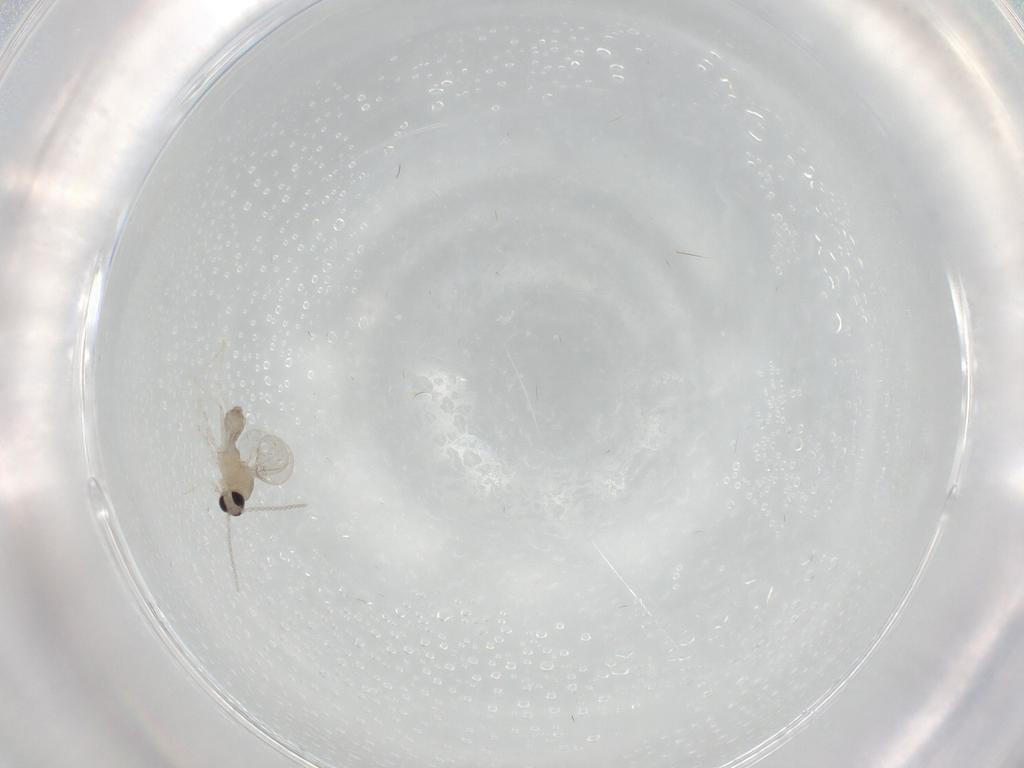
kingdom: Animalia
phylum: Arthropoda
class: Insecta
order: Diptera
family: Cecidomyiidae
